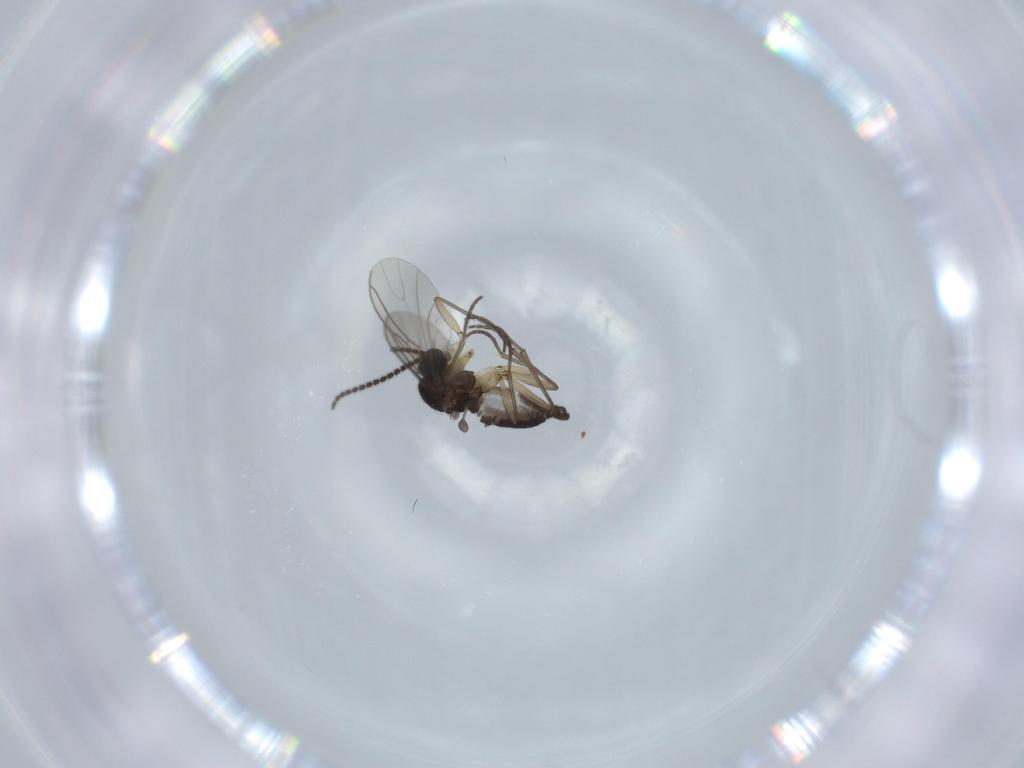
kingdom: Animalia
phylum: Arthropoda
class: Insecta
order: Diptera
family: Sciaridae
